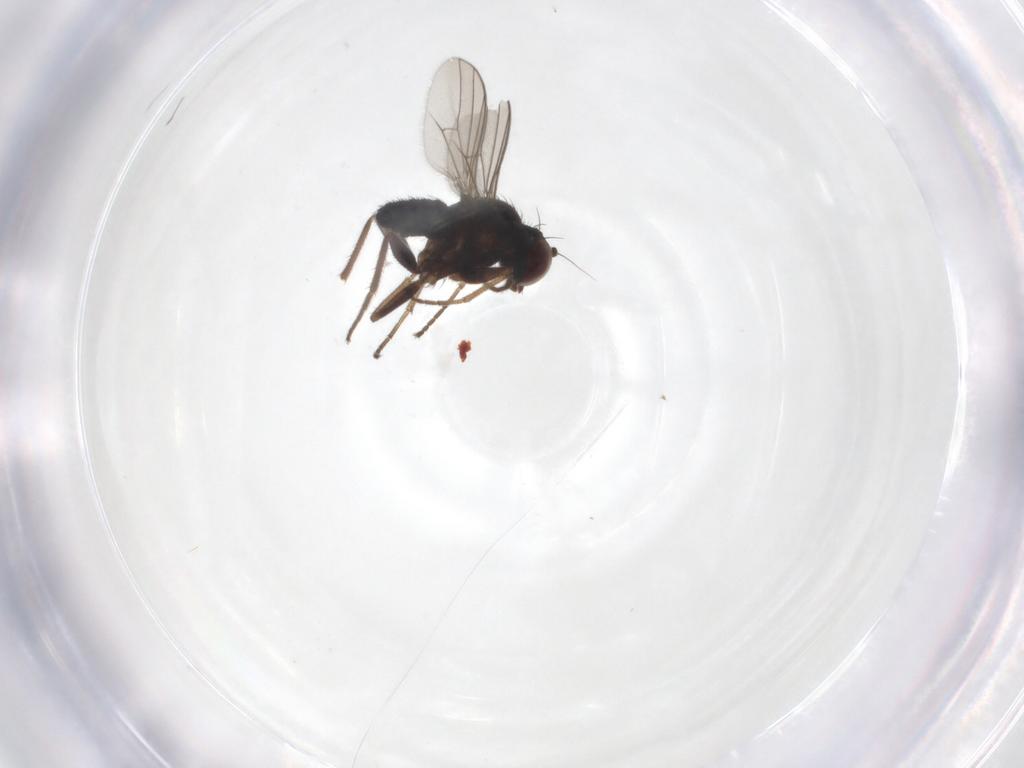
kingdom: Animalia
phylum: Arthropoda
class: Insecta
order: Diptera
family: Dolichopodidae
